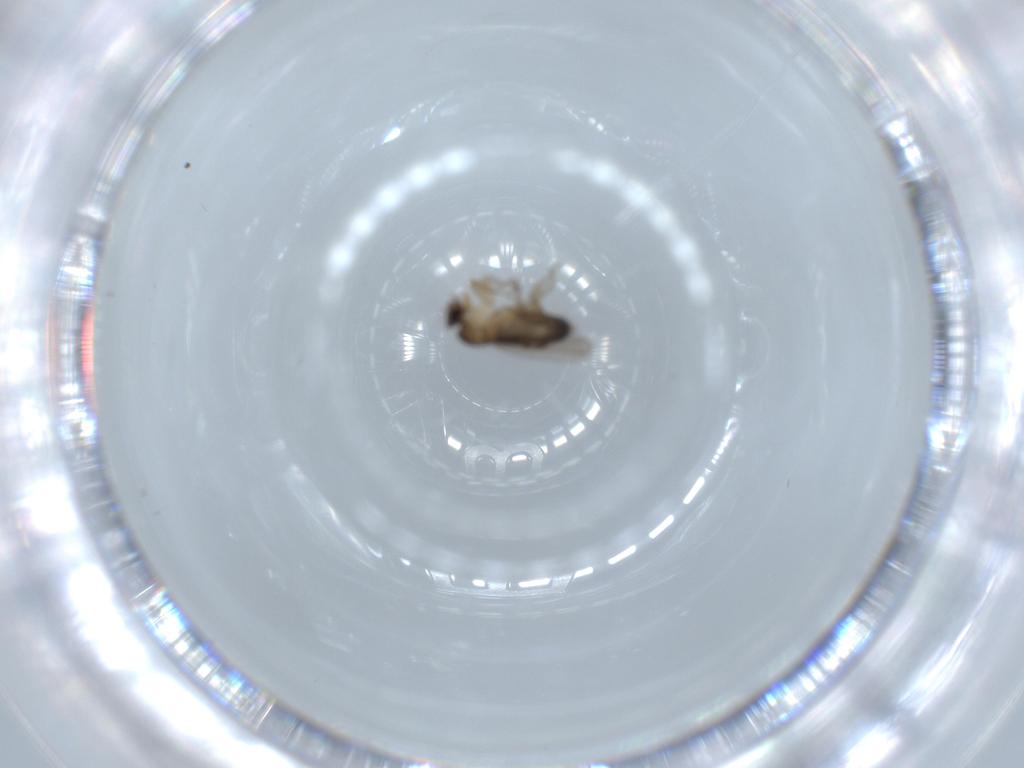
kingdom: Animalia
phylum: Arthropoda
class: Insecta
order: Diptera
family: Phoridae
